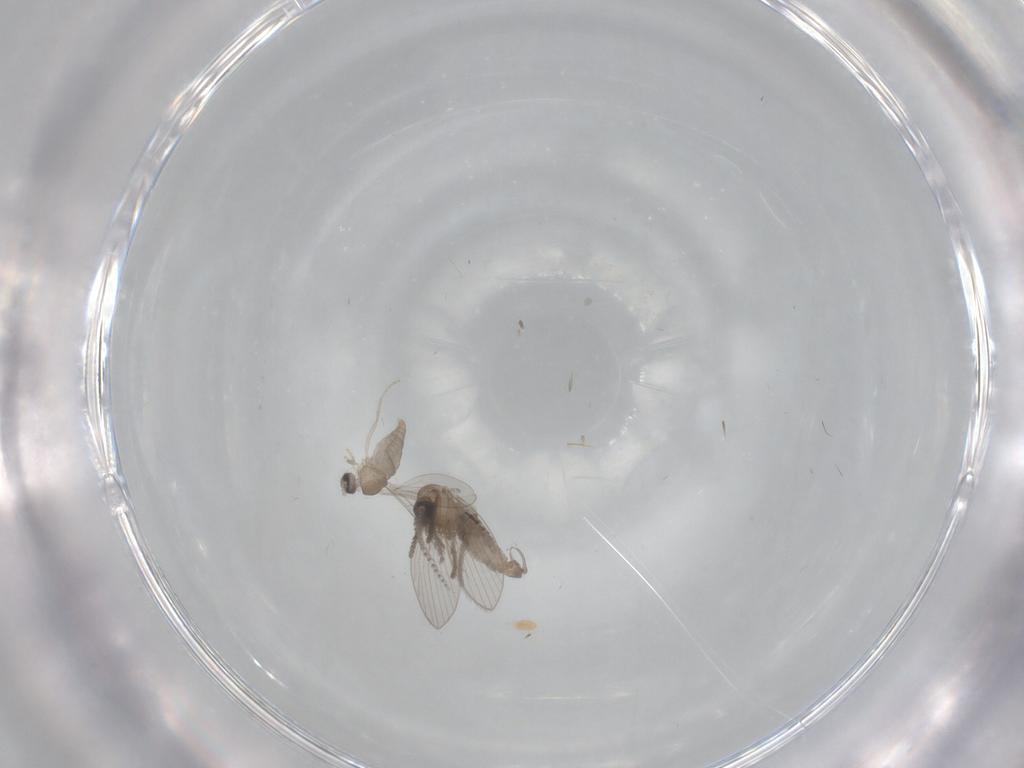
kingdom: Animalia
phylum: Arthropoda
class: Insecta
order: Diptera
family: Cecidomyiidae
